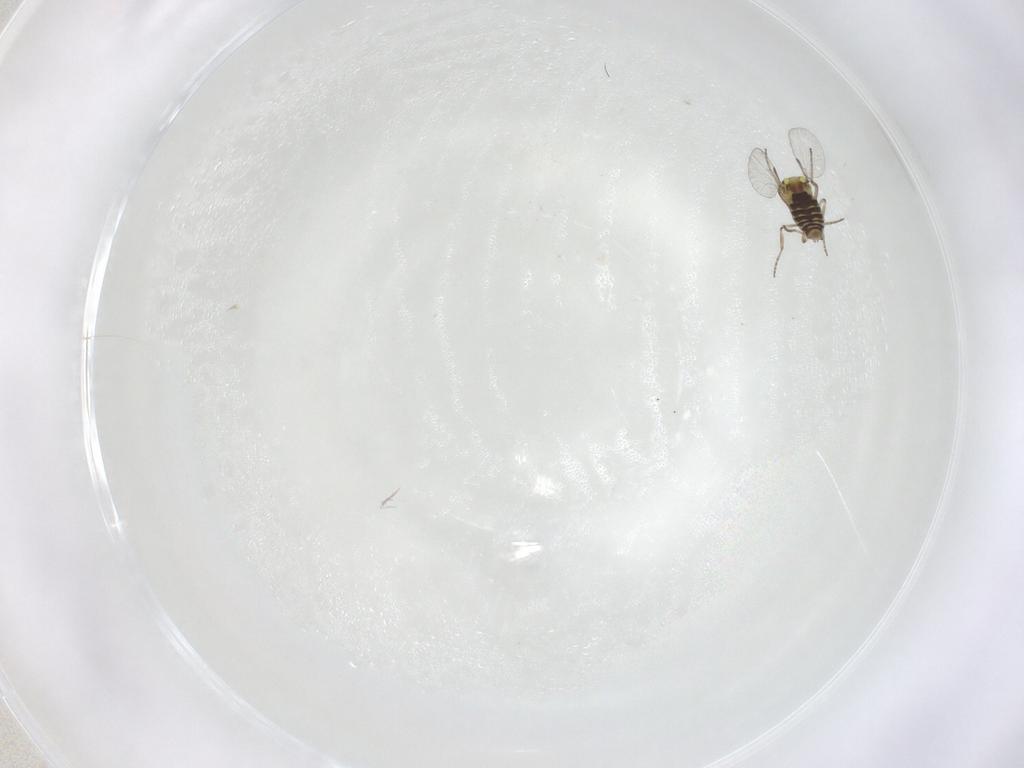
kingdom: Animalia
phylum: Arthropoda
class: Insecta
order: Diptera
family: Ceratopogonidae
